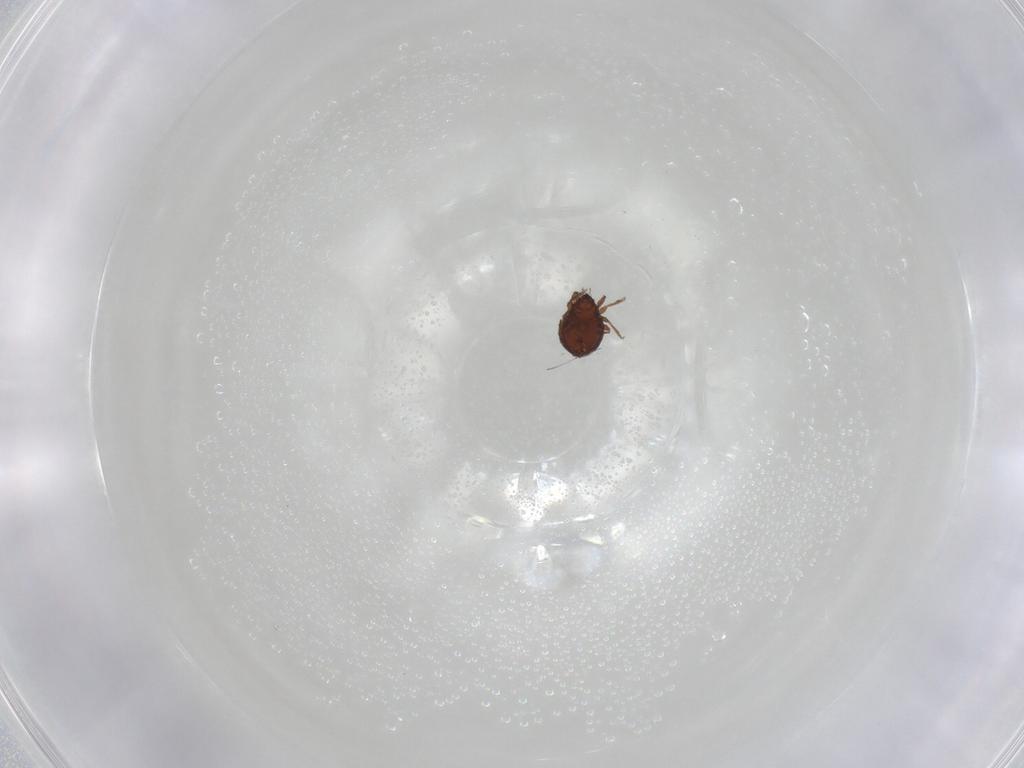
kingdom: Animalia
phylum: Arthropoda
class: Arachnida
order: Sarcoptiformes
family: Oribatulidae
